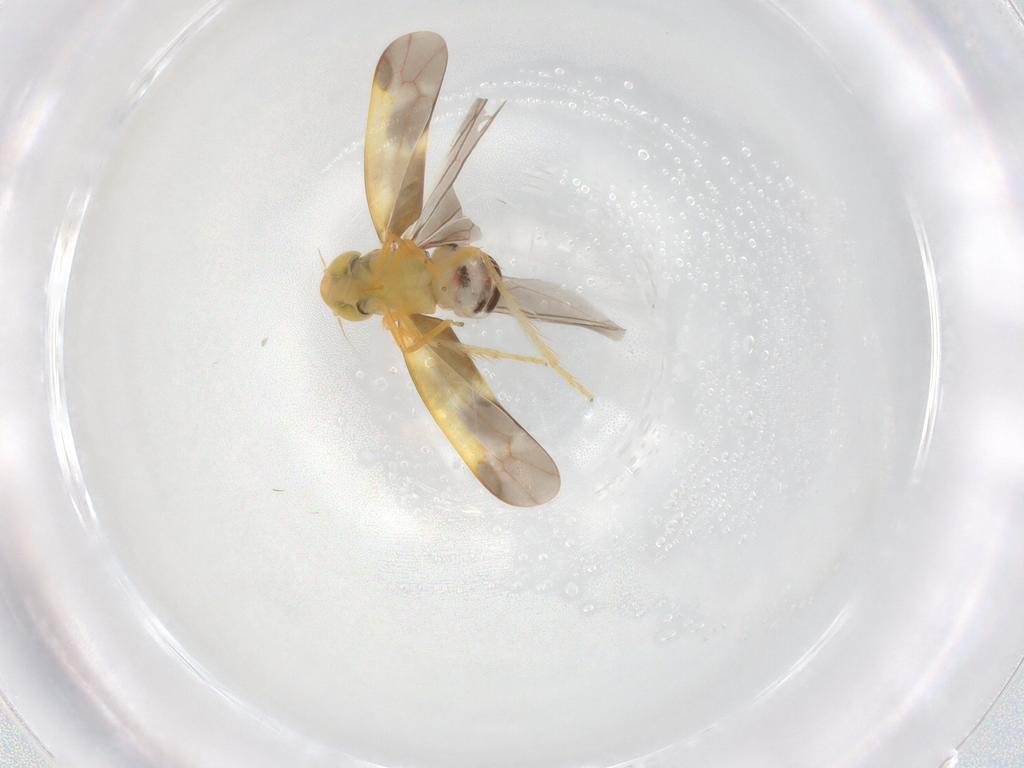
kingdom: Animalia
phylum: Arthropoda
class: Insecta
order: Hemiptera
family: Cicadellidae
